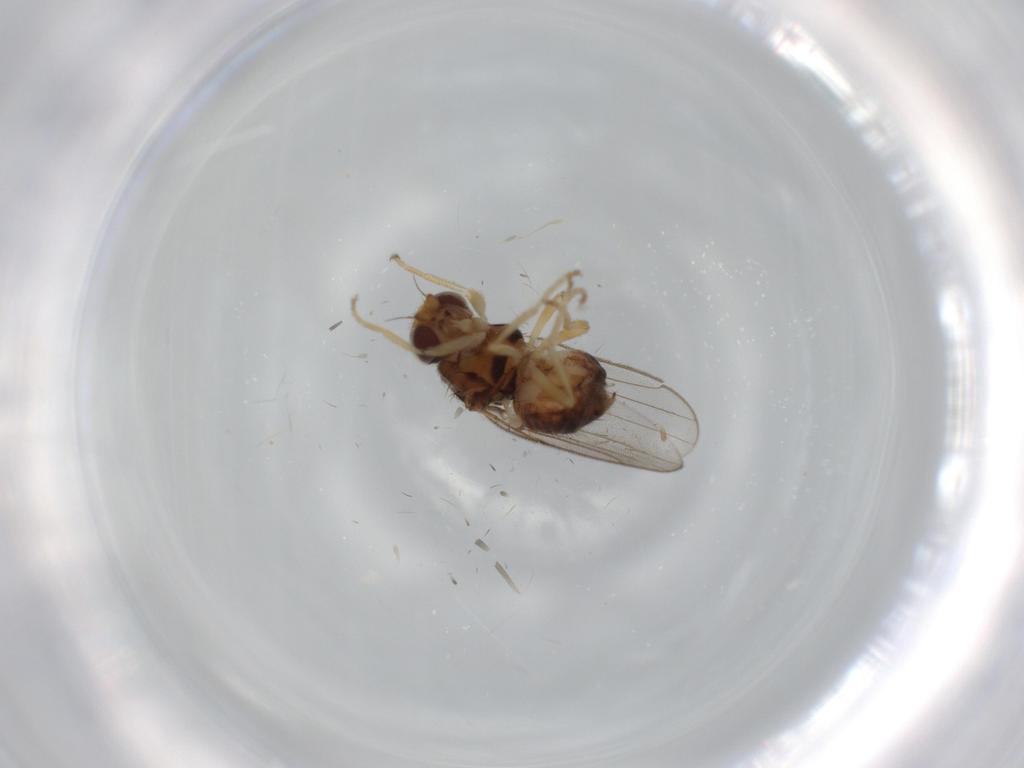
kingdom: Animalia
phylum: Arthropoda
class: Insecta
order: Diptera
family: Chloropidae
